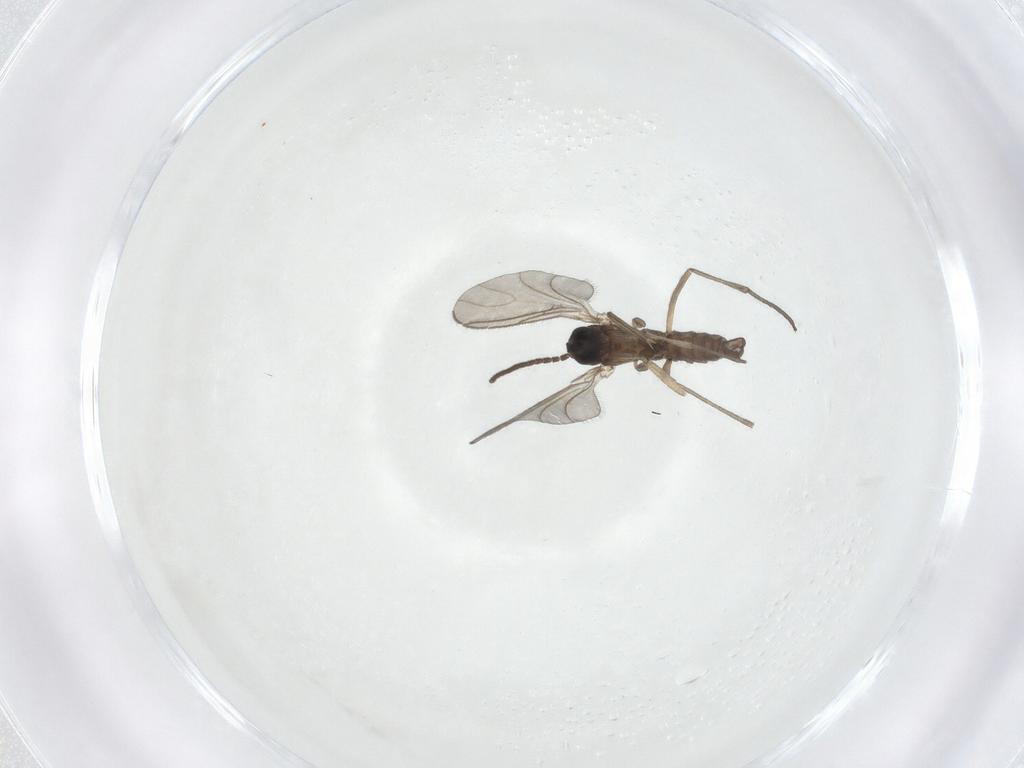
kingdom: Animalia
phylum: Arthropoda
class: Insecta
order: Diptera
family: Sciaridae
